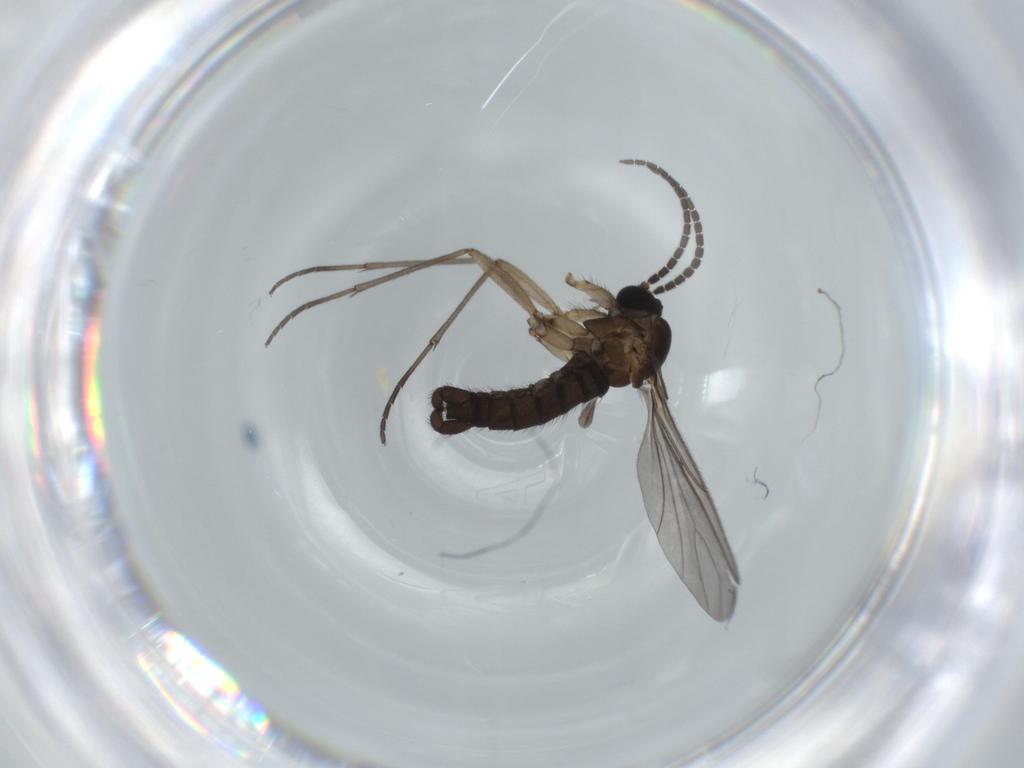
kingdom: Animalia
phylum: Arthropoda
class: Insecta
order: Diptera
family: Sciaridae
